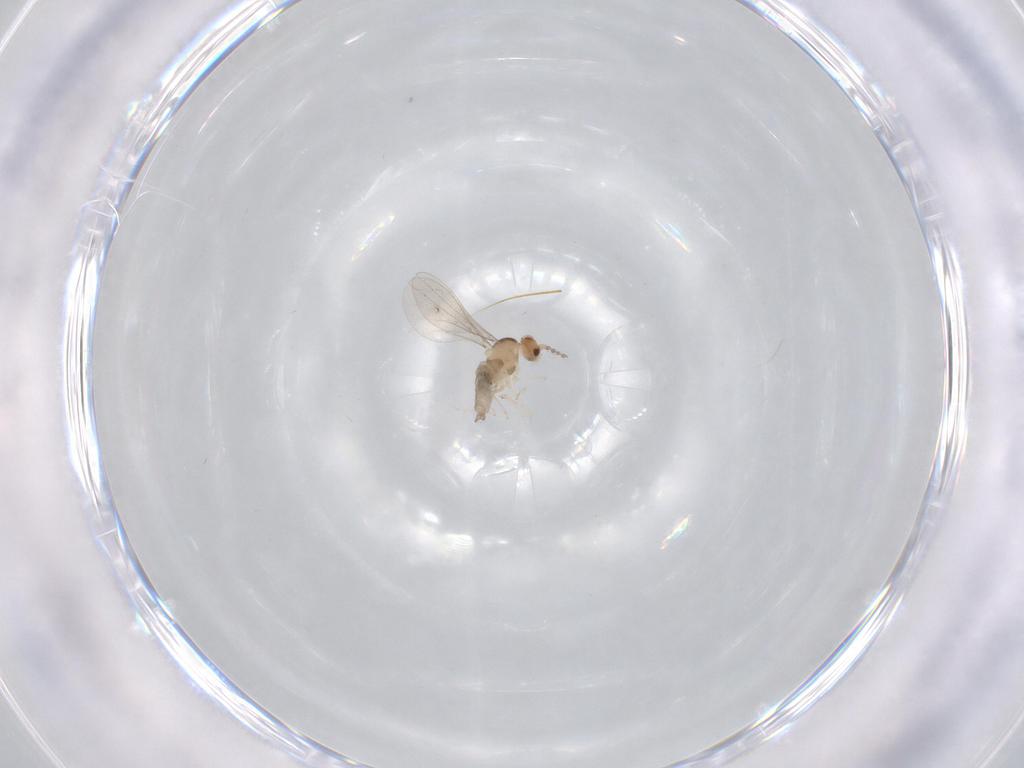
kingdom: Animalia
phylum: Arthropoda
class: Insecta
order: Diptera
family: Cecidomyiidae
